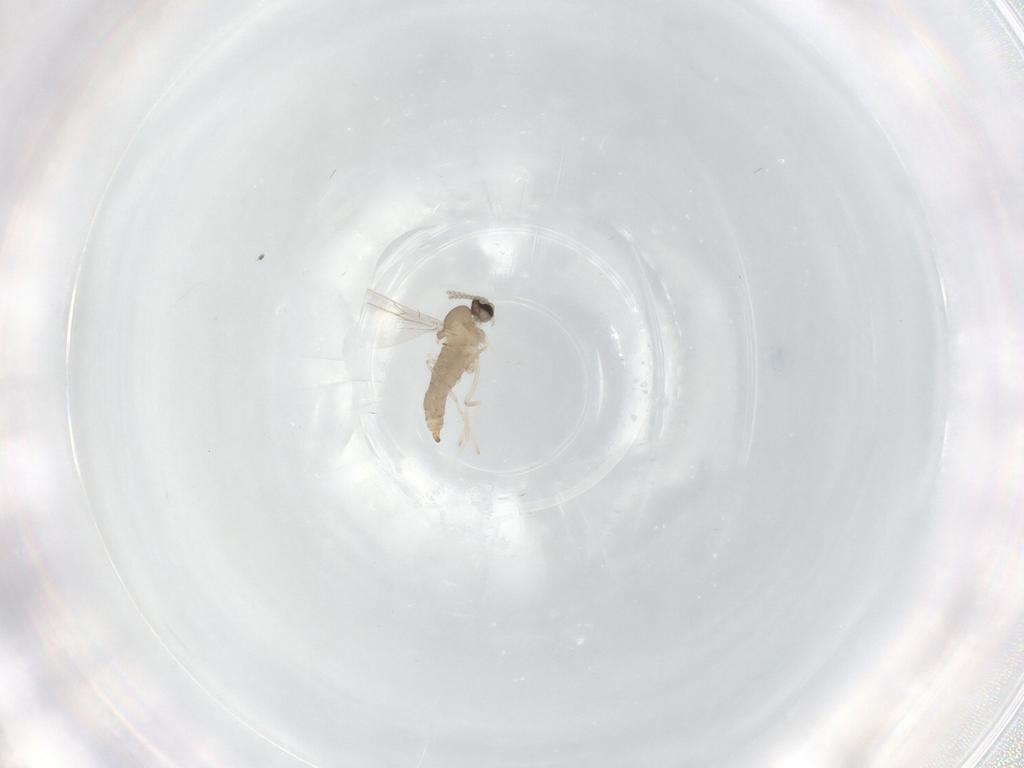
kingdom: Animalia
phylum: Arthropoda
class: Insecta
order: Diptera
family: Cecidomyiidae
